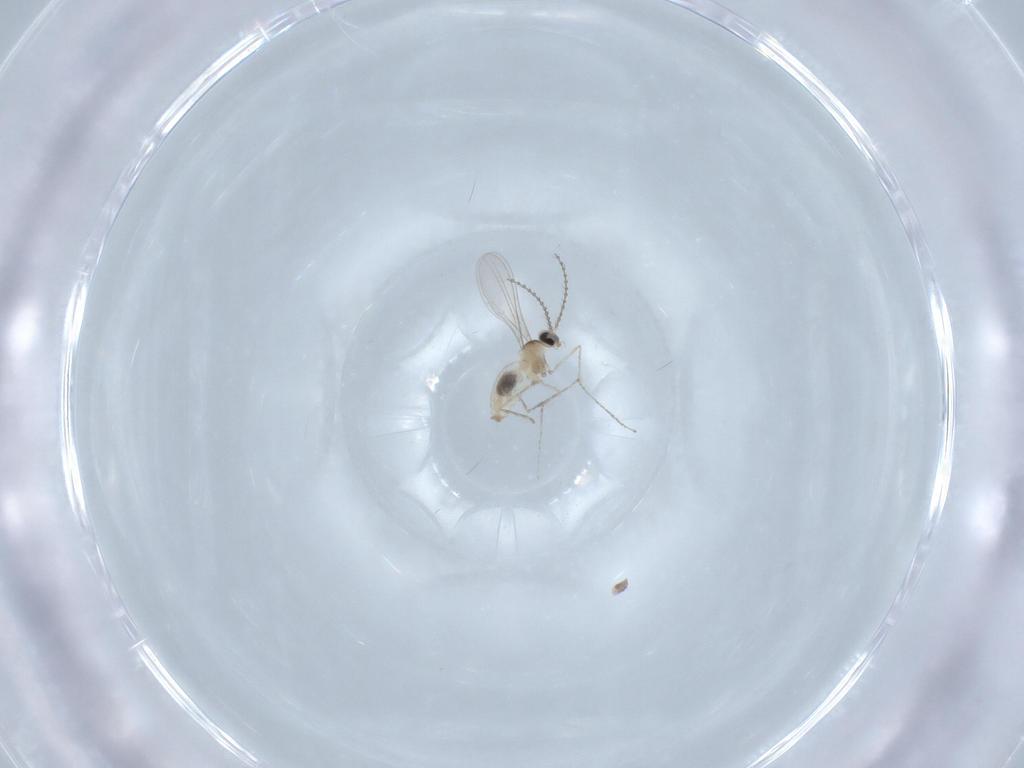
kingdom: Animalia
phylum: Arthropoda
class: Insecta
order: Diptera
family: Cecidomyiidae
